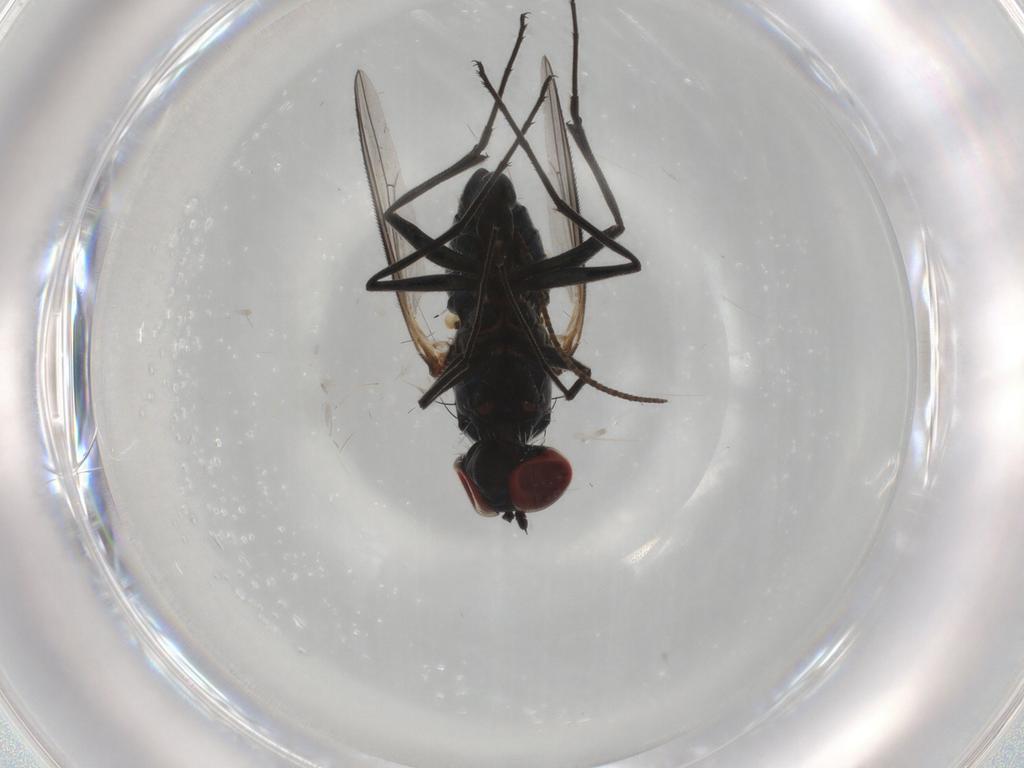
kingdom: Animalia
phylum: Arthropoda
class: Insecta
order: Diptera
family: Dolichopodidae
